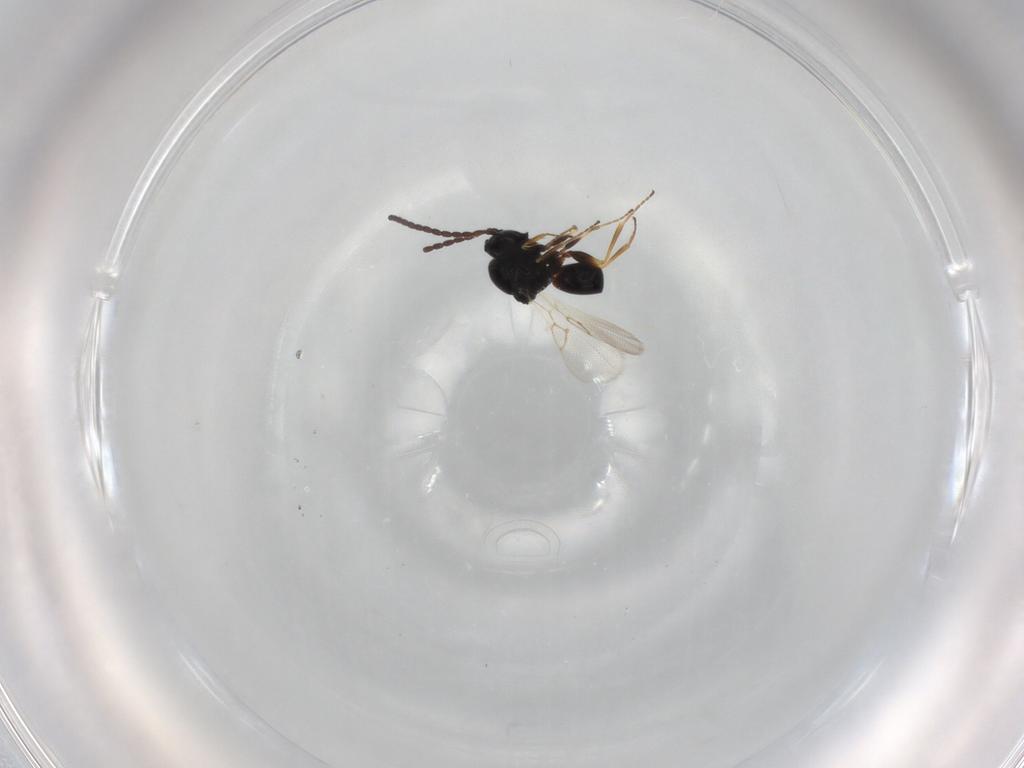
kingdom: Animalia
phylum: Arthropoda
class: Insecta
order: Hymenoptera
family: Figitidae
